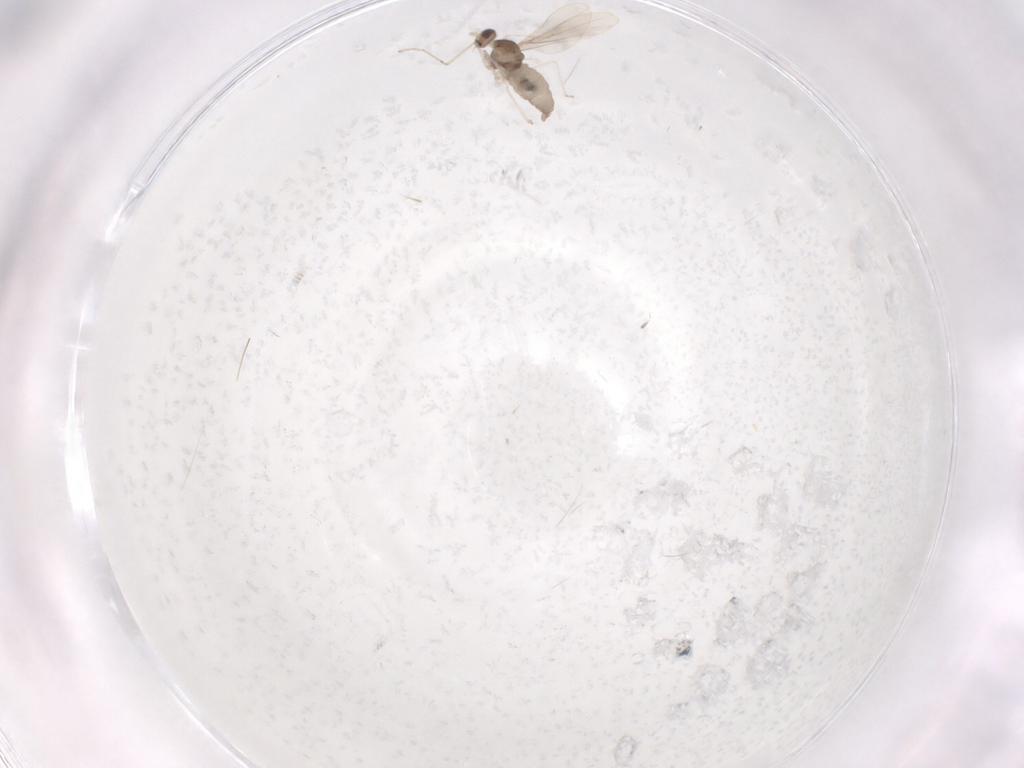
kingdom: Animalia
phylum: Arthropoda
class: Insecta
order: Diptera
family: Cecidomyiidae
